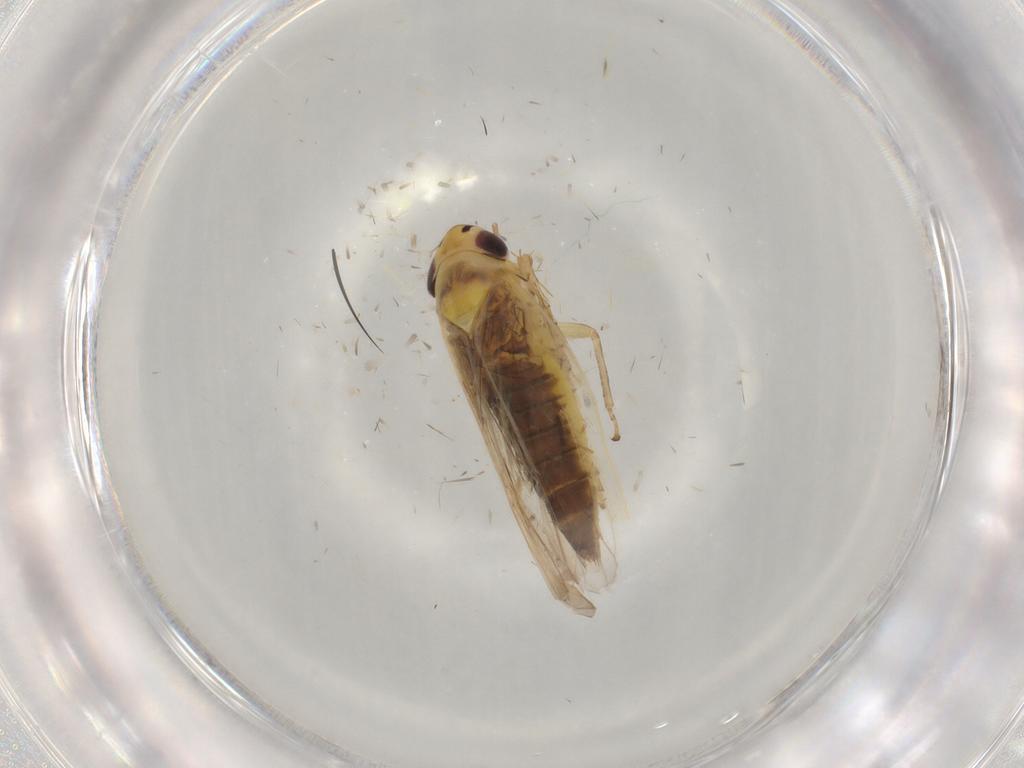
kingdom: Animalia
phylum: Arthropoda
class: Insecta
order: Hemiptera
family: Cicadellidae
